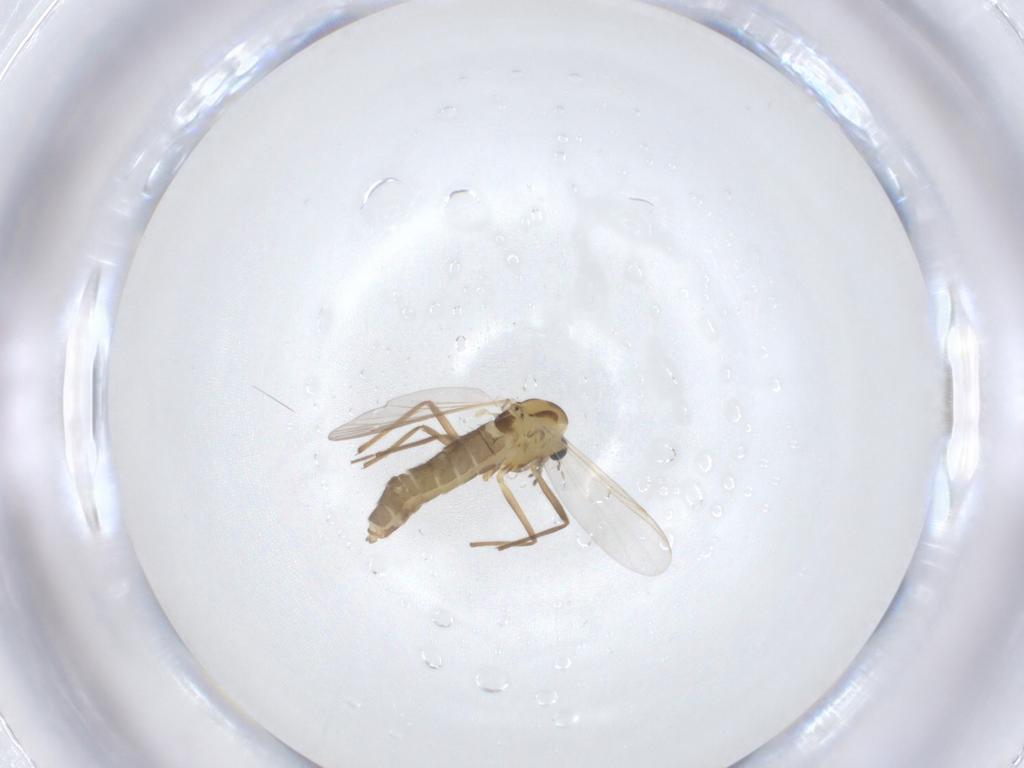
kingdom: Animalia
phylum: Arthropoda
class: Insecta
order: Diptera
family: Chironomidae
